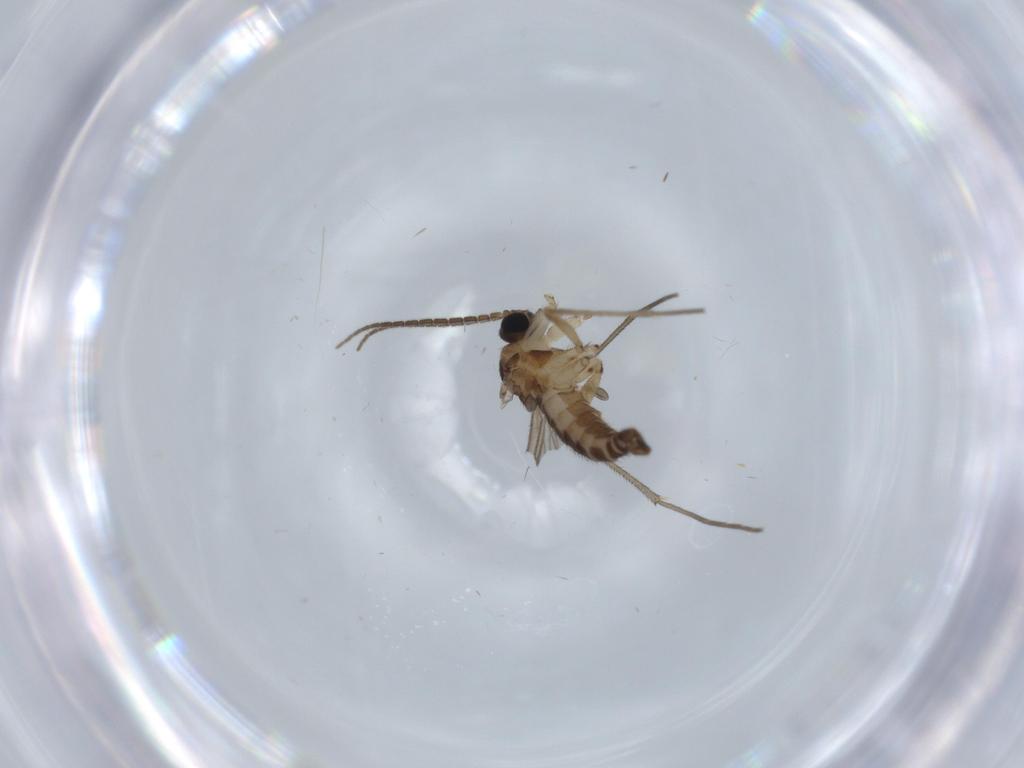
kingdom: Animalia
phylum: Arthropoda
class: Insecta
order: Diptera
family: Sciaridae
